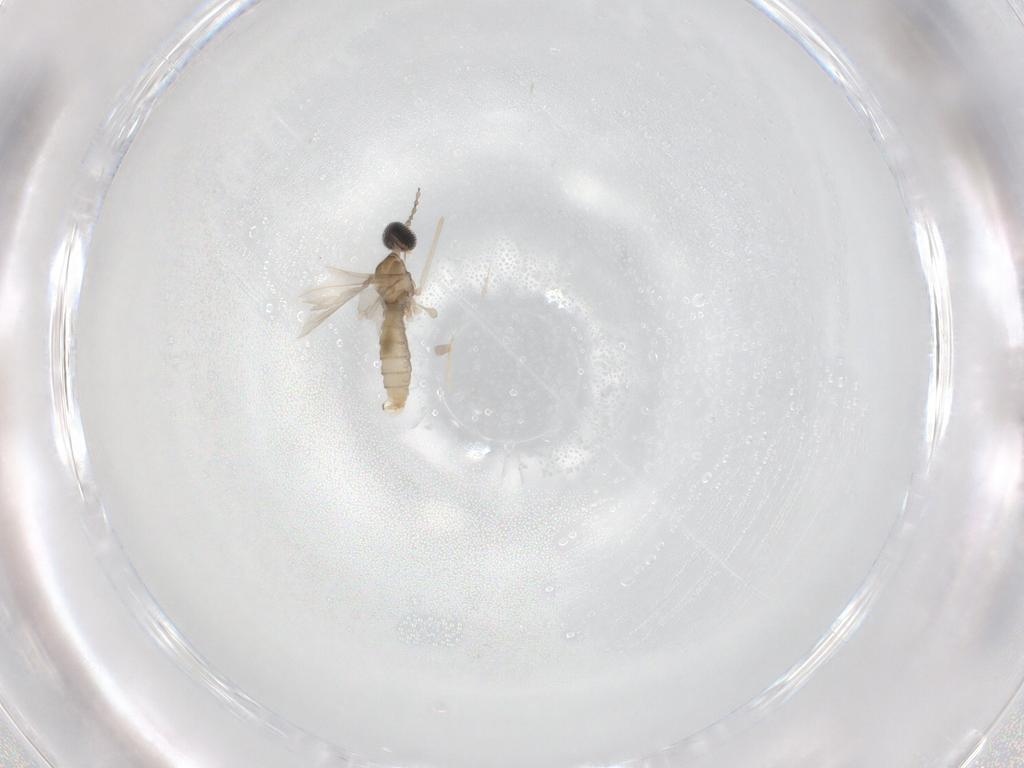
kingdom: Animalia
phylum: Arthropoda
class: Insecta
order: Diptera
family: Cecidomyiidae
